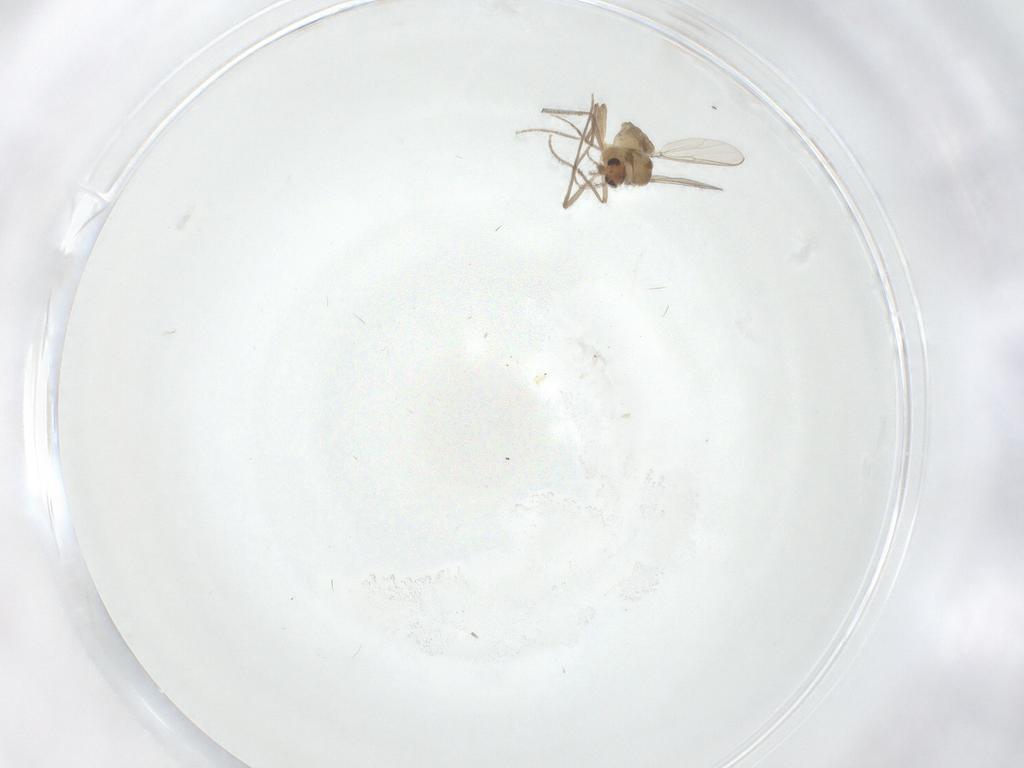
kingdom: Animalia
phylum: Arthropoda
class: Insecta
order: Diptera
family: Chironomidae
